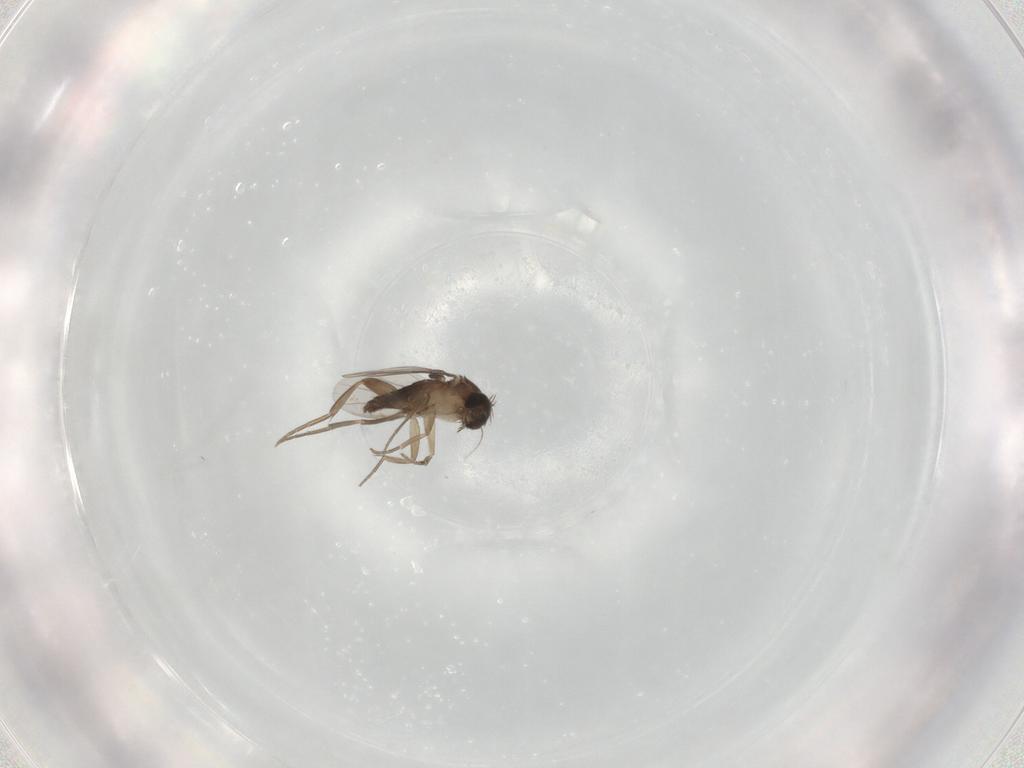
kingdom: Animalia
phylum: Arthropoda
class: Insecta
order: Diptera
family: Phoridae
